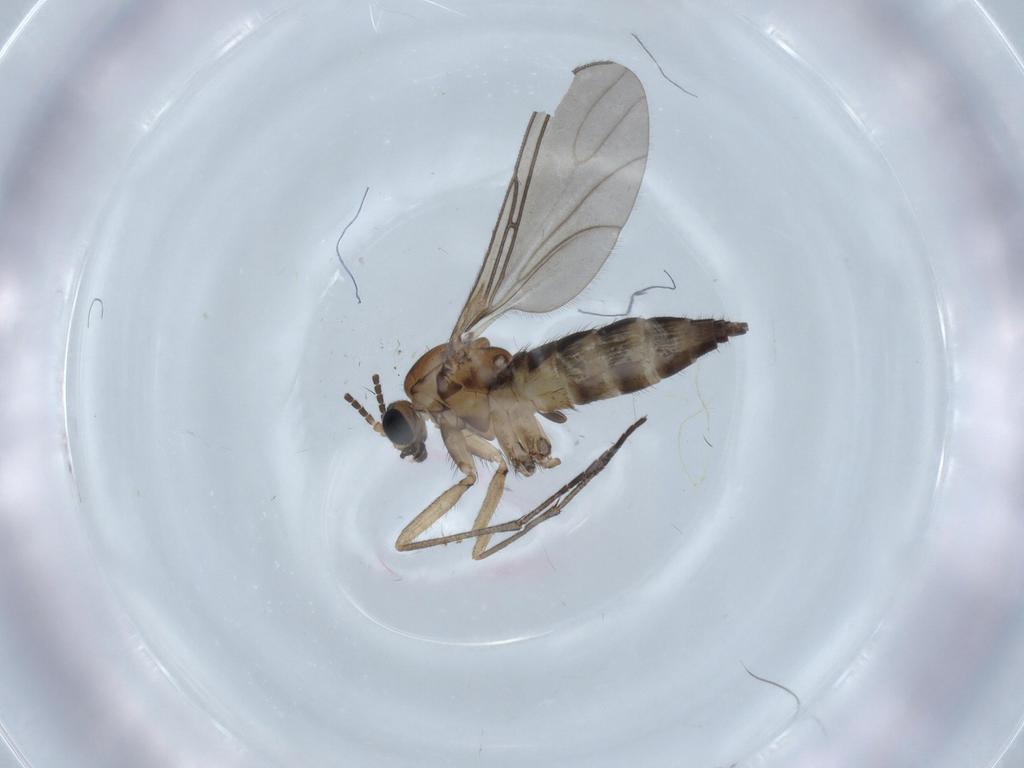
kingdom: Animalia
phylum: Arthropoda
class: Insecta
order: Diptera
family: Sciaridae
